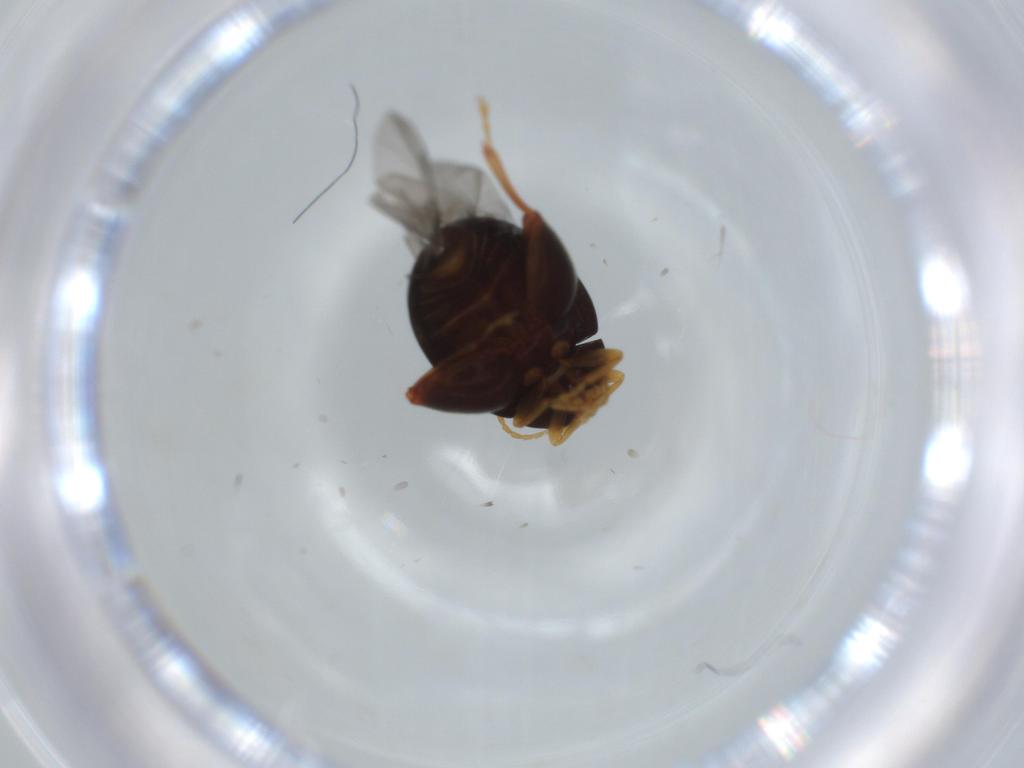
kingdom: Animalia
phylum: Arthropoda
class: Insecta
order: Coleoptera
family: Chrysomelidae
